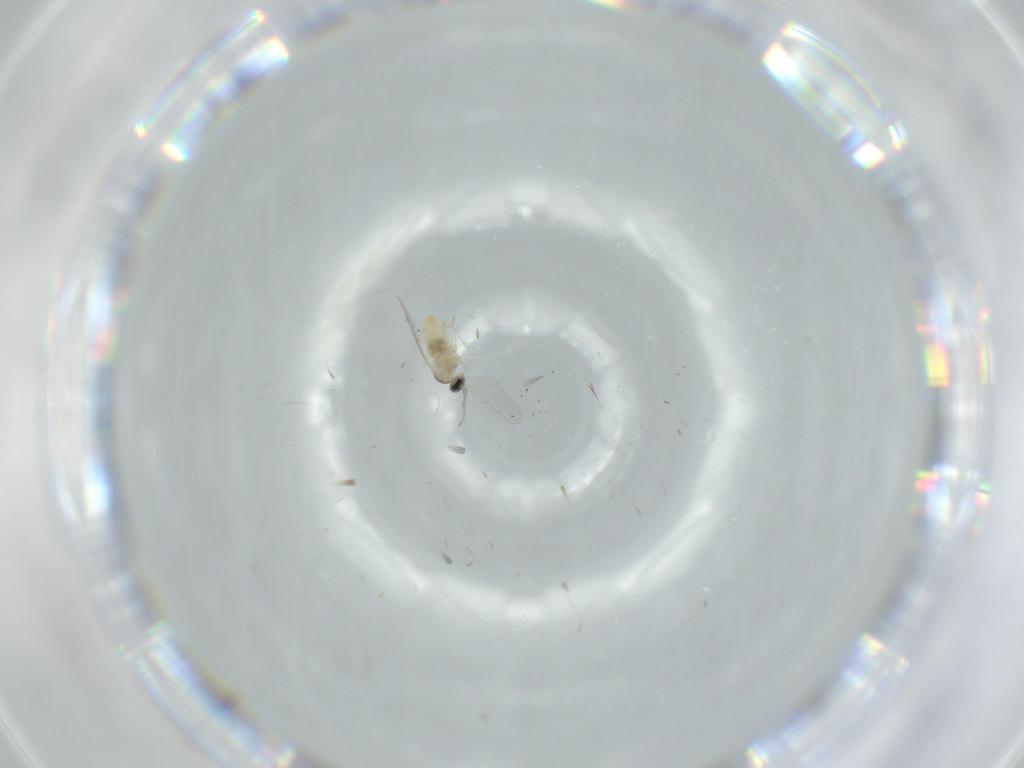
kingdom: Animalia
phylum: Arthropoda
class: Insecta
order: Diptera
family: Cecidomyiidae
